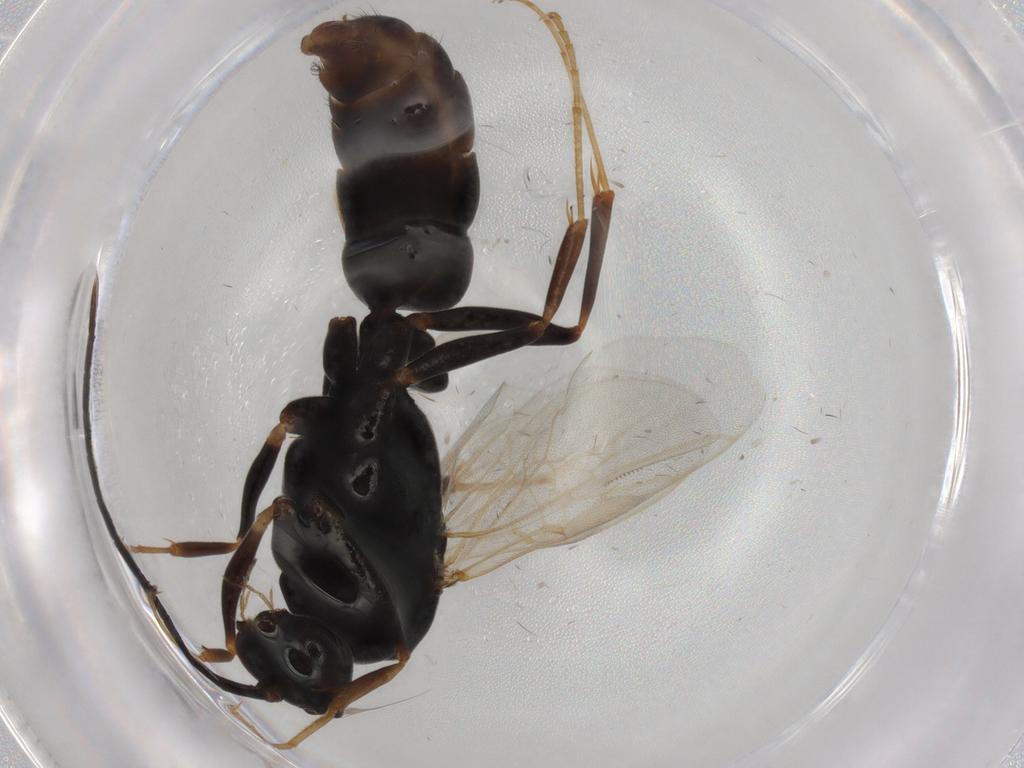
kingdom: Animalia
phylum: Arthropoda
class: Insecta
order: Hymenoptera
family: Formicidae
